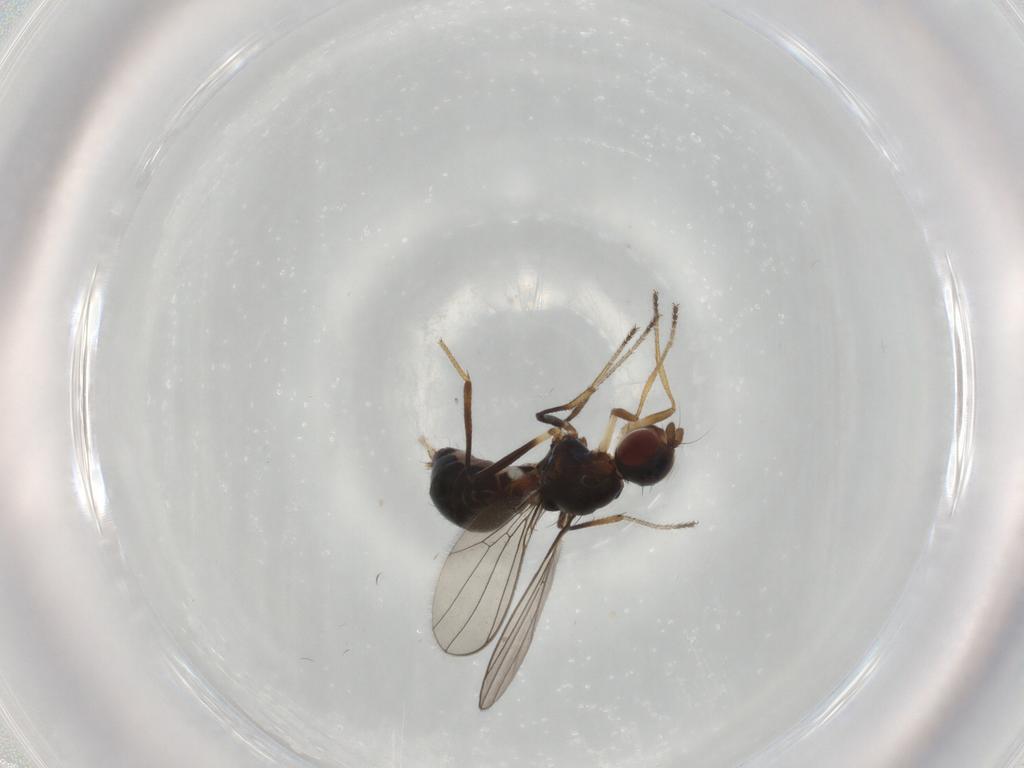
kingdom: Animalia
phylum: Arthropoda
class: Insecta
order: Diptera
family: Sepsidae
